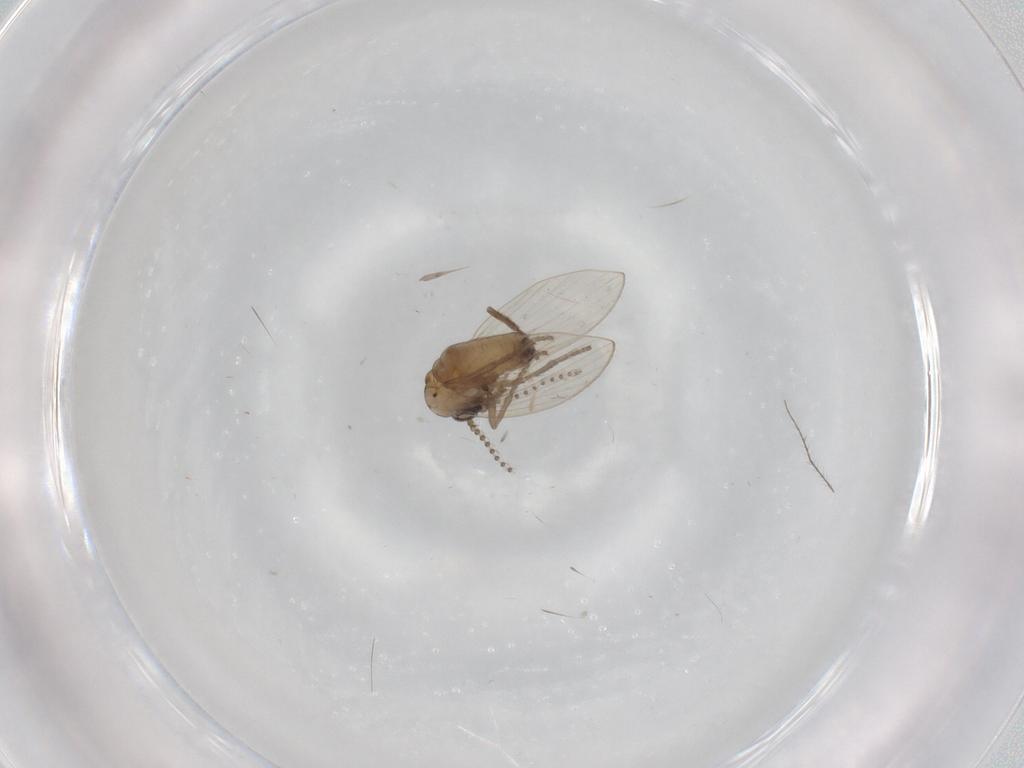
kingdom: Animalia
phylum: Arthropoda
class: Insecta
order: Diptera
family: Psychodidae
